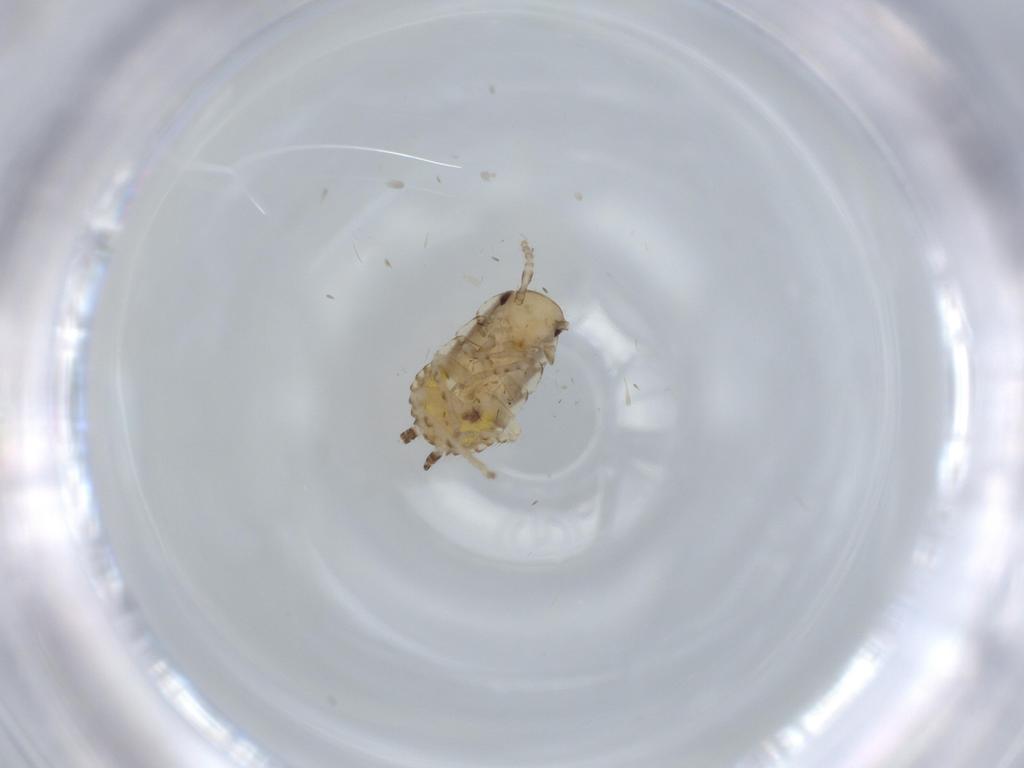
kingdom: Animalia
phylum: Arthropoda
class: Insecta
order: Blattodea
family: Ectobiidae
